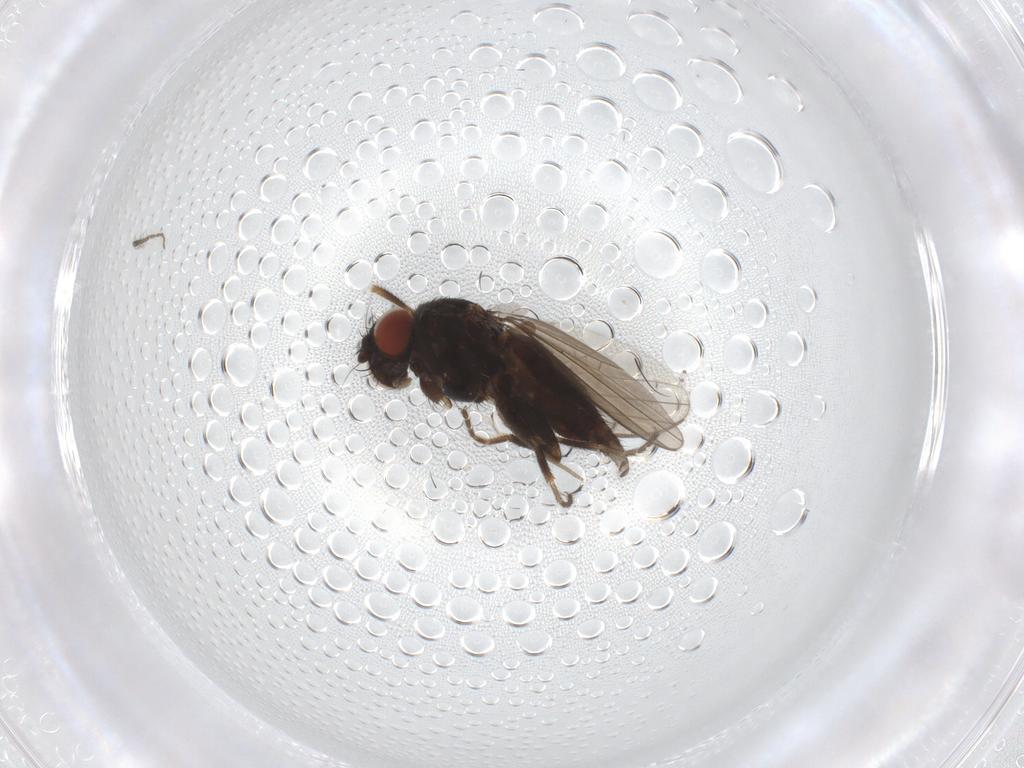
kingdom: Animalia
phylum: Arthropoda
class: Insecta
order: Diptera
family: Milichiidae
